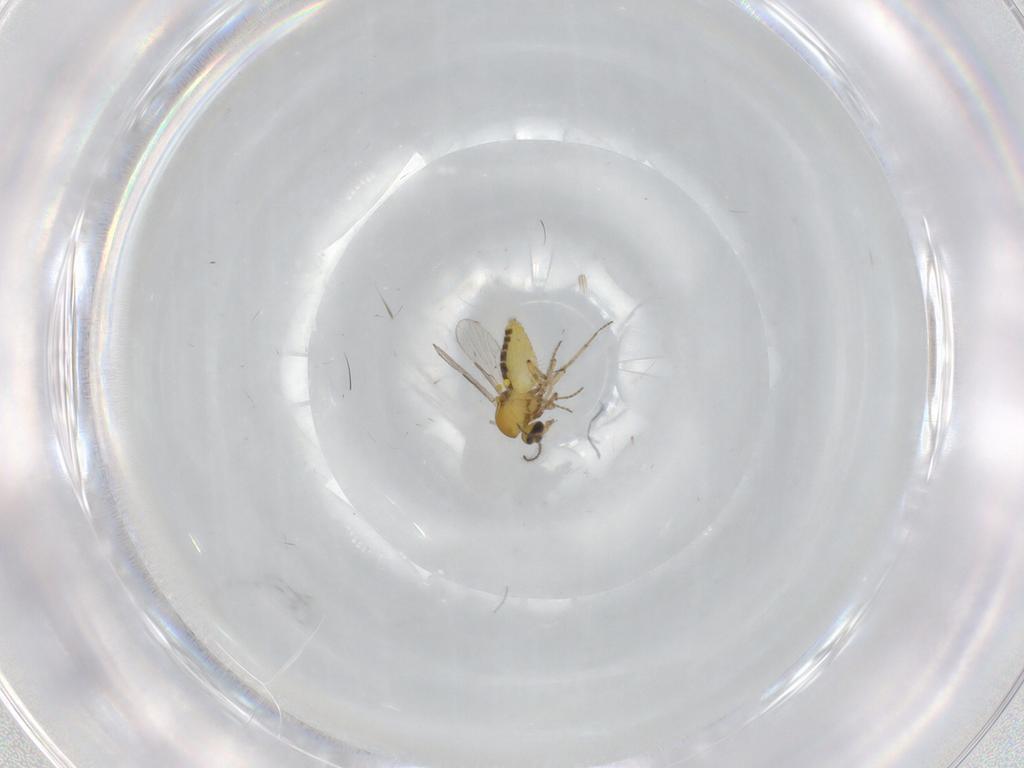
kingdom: Animalia
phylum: Arthropoda
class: Insecta
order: Diptera
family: Chironomidae
